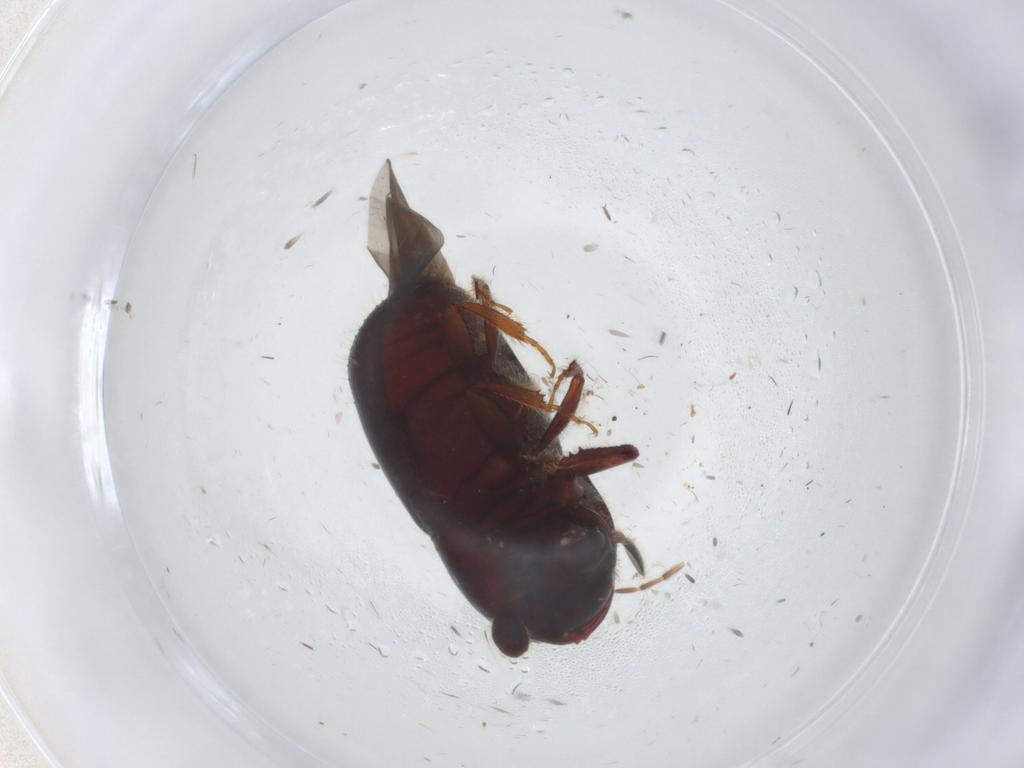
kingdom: Animalia
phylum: Arthropoda
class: Insecta
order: Coleoptera
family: Curculionidae
